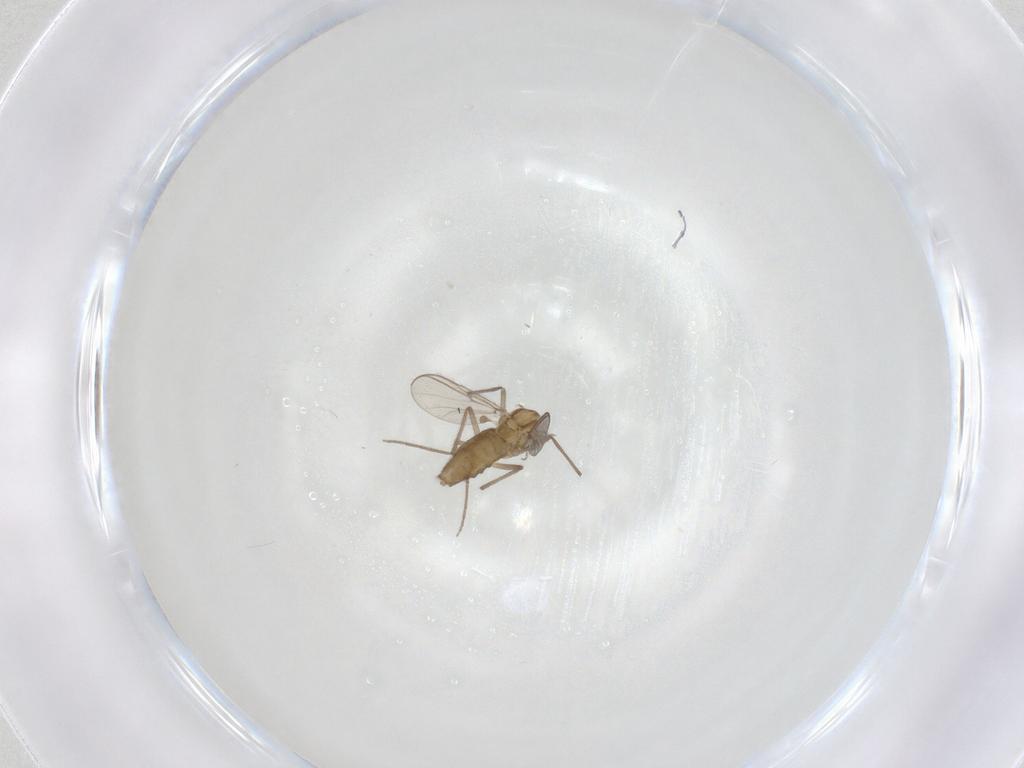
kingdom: Animalia
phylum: Arthropoda
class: Insecta
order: Diptera
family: Chironomidae
